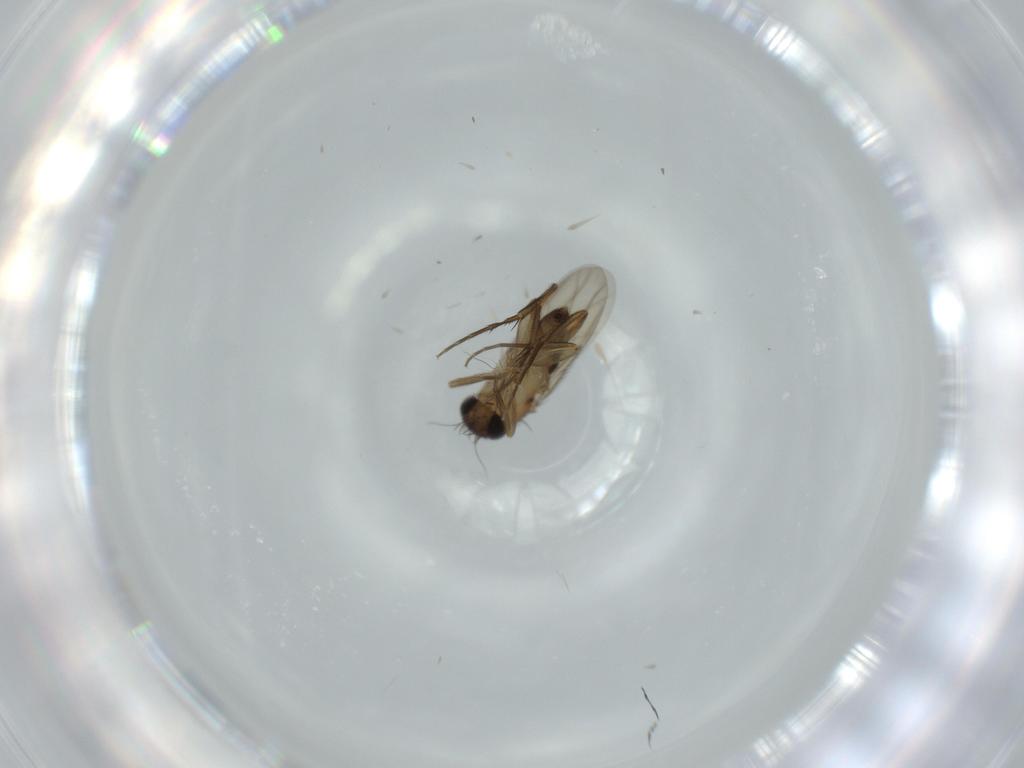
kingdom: Animalia
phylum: Arthropoda
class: Insecta
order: Diptera
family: Phoridae
